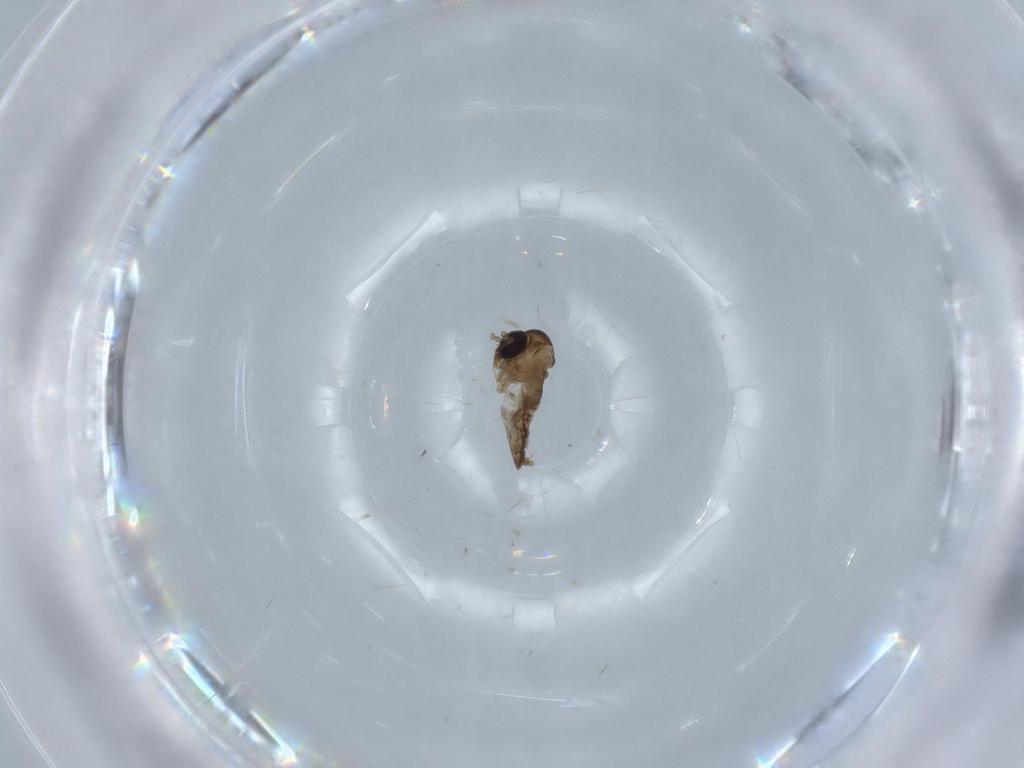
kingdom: Animalia
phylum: Arthropoda
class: Insecta
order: Diptera
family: Psychodidae
